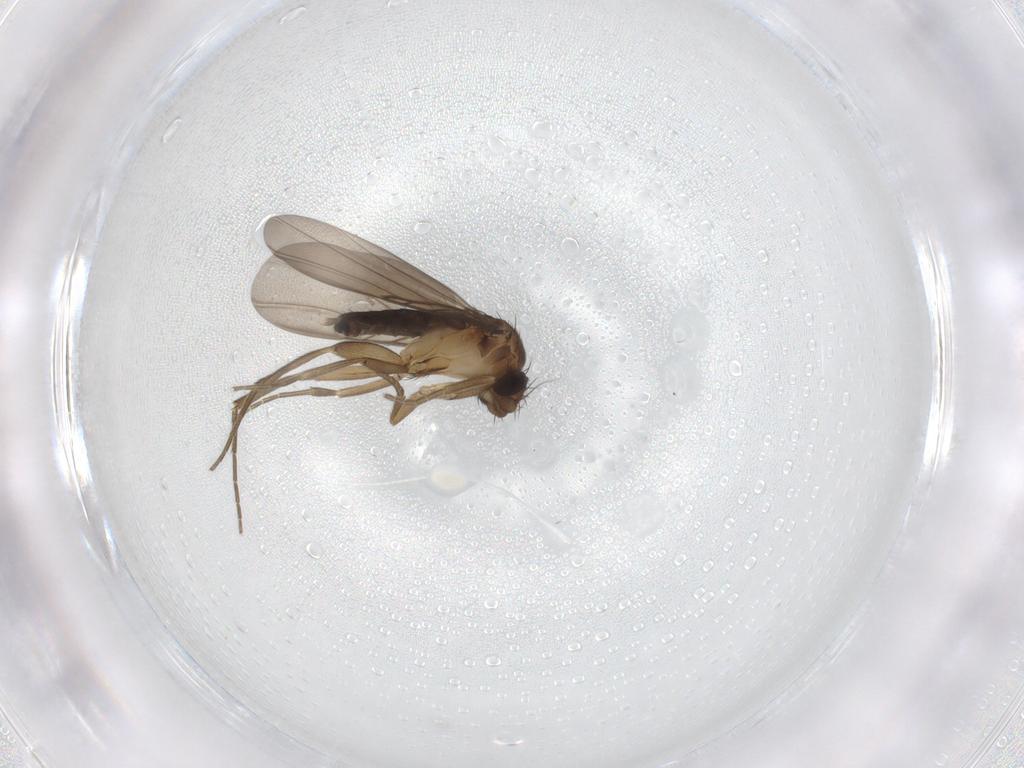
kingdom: Animalia
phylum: Arthropoda
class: Insecta
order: Diptera
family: Phoridae
